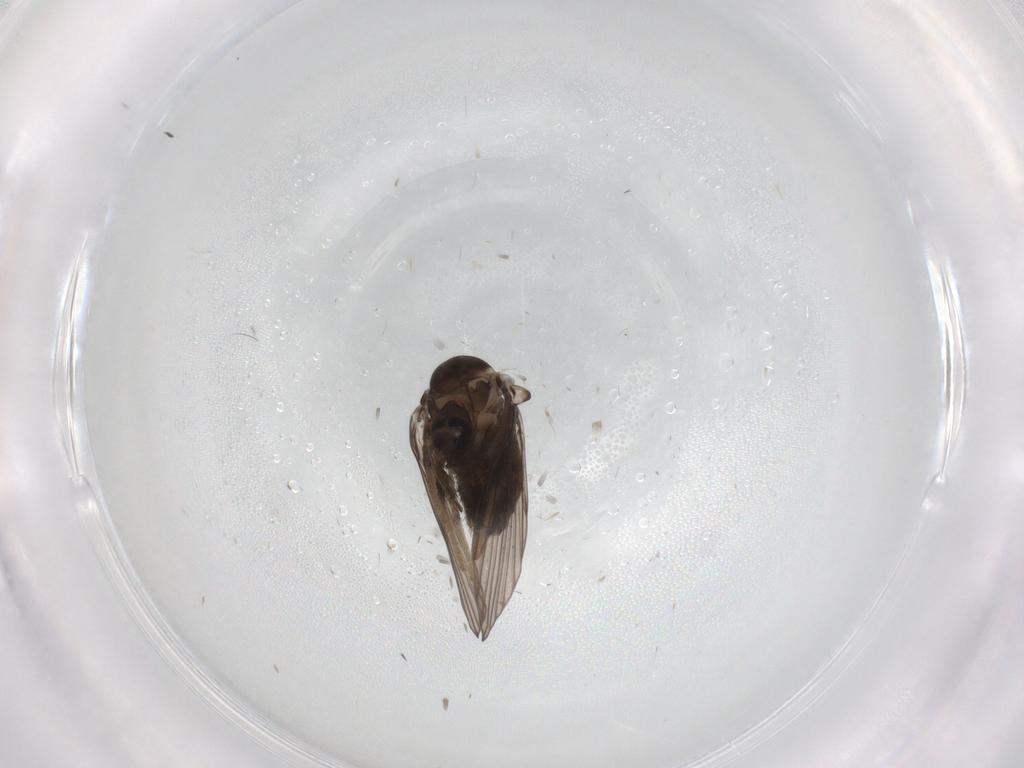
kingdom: Animalia
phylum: Arthropoda
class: Insecta
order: Diptera
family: Psychodidae
